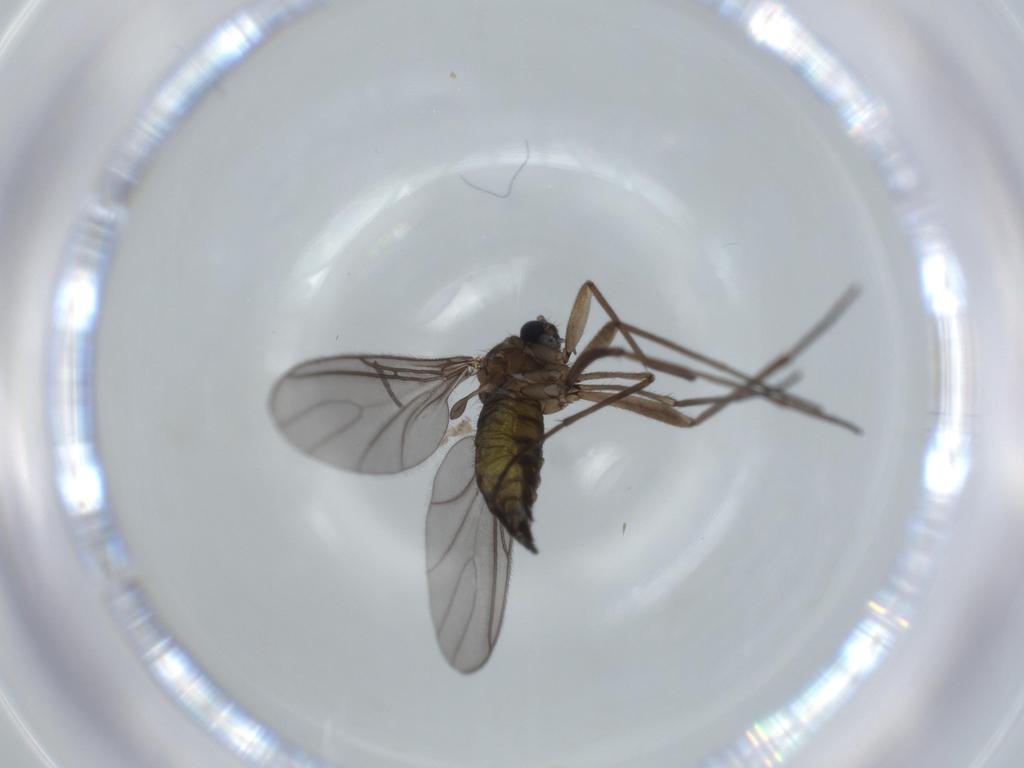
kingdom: Animalia
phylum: Arthropoda
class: Insecta
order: Diptera
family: Sciaridae
